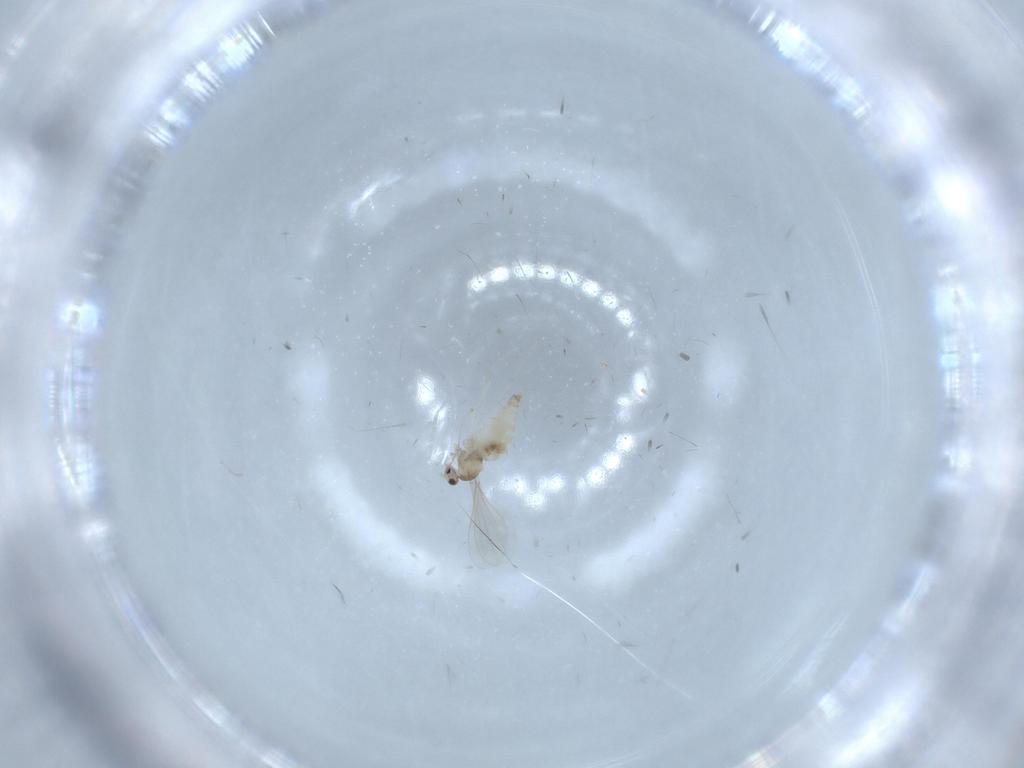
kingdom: Animalia
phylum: Arthropoda
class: Insecta
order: Diptera
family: Cecidomyiidae
